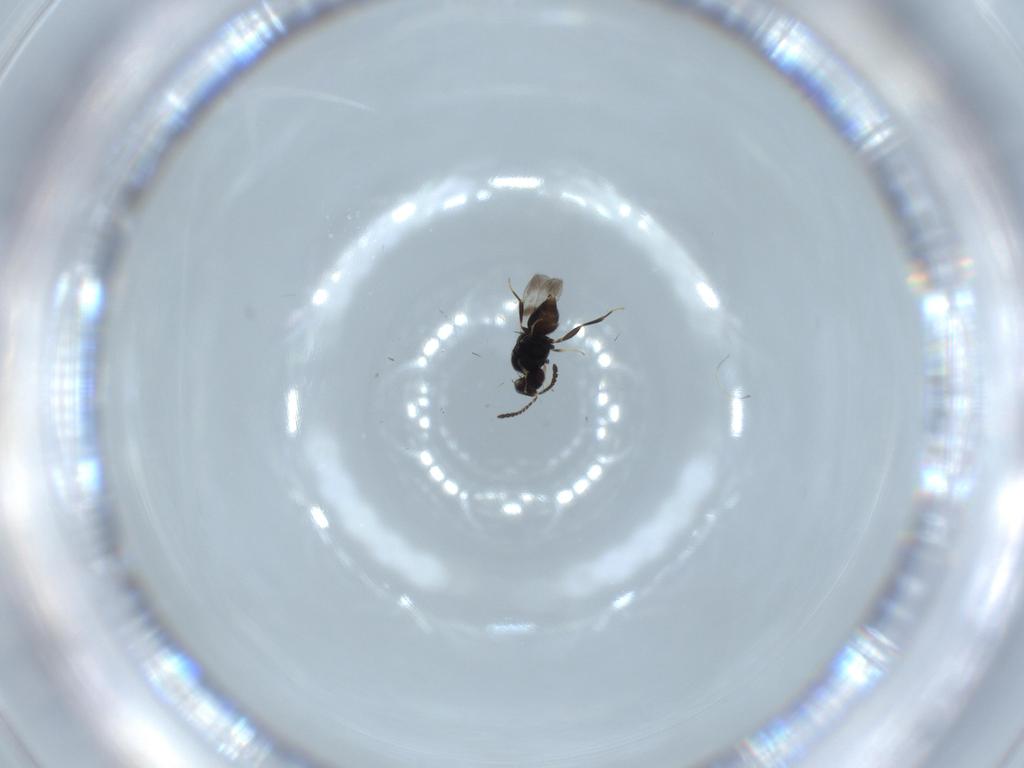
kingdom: Animalia
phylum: Arthropoda
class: Insecta
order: Hymenoptera
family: Ceraphronidae
